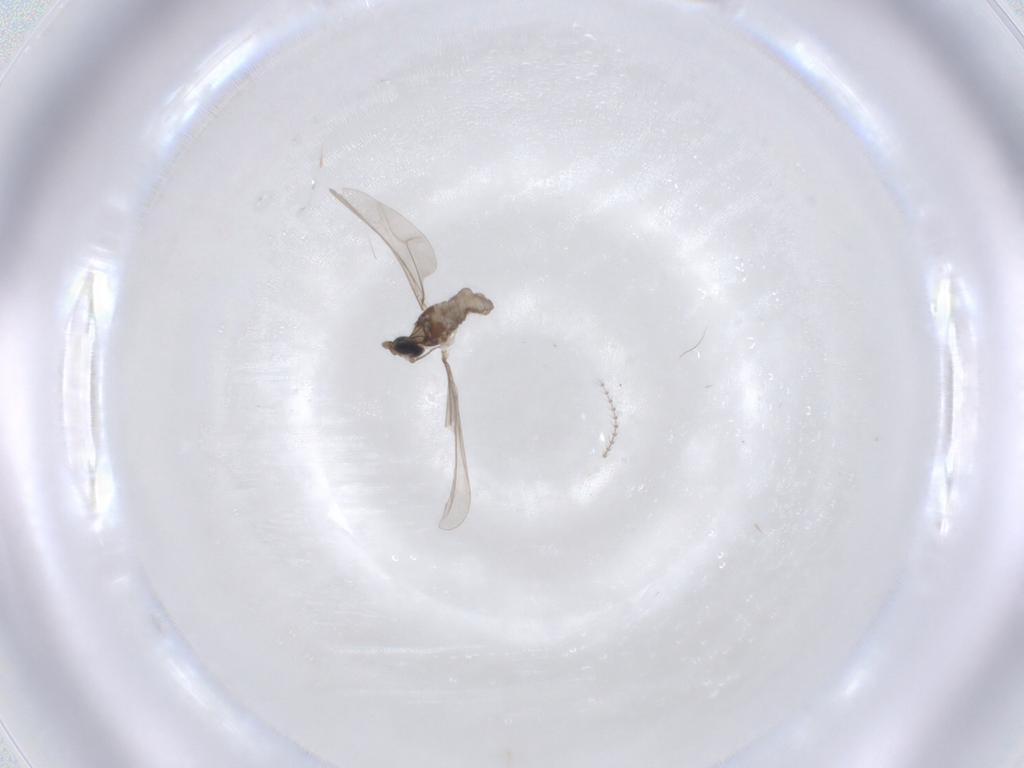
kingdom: Animalia
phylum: Arthropoda
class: Insecta
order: Diptera
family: Cecidomyiidae
